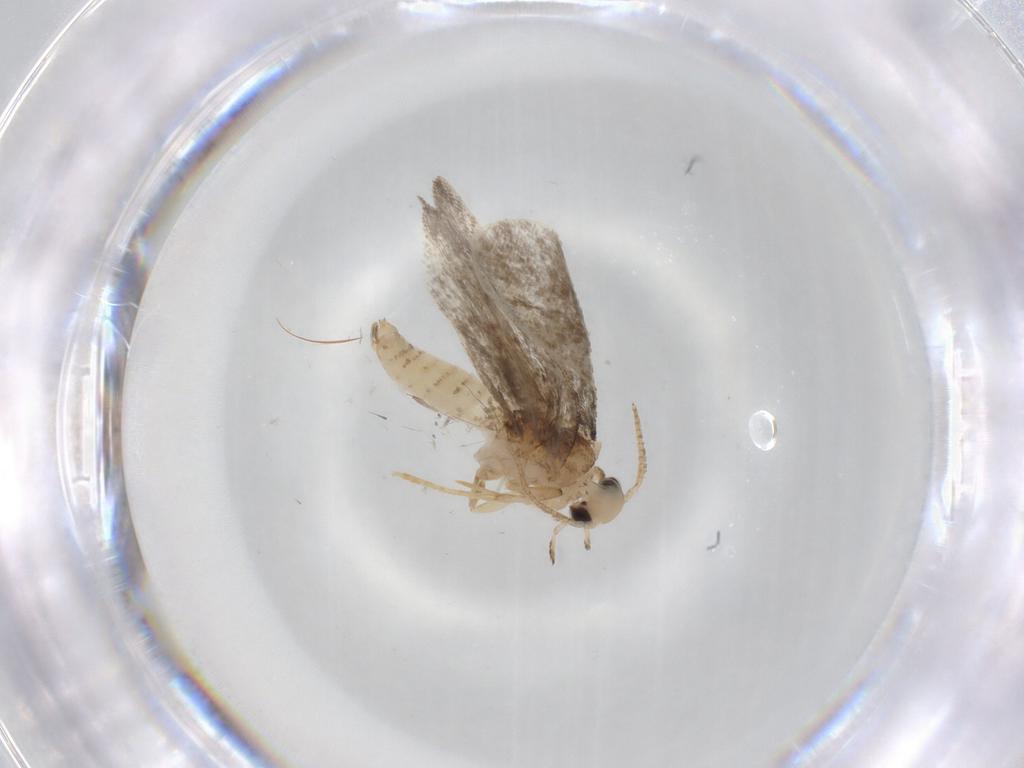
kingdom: Animalia
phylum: Arthropoda
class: Insecta
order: Lepidoptera
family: Psychidae
